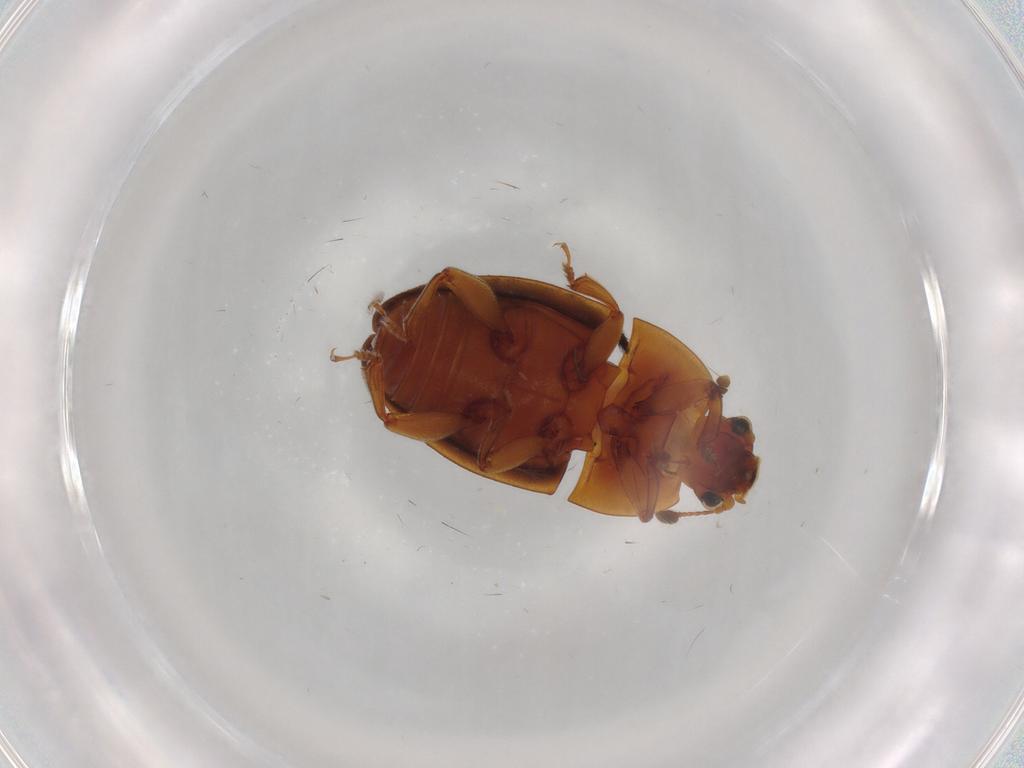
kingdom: Animalia
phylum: Arthropoda
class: Insecta
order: Coleoptera
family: Nitidulidae
